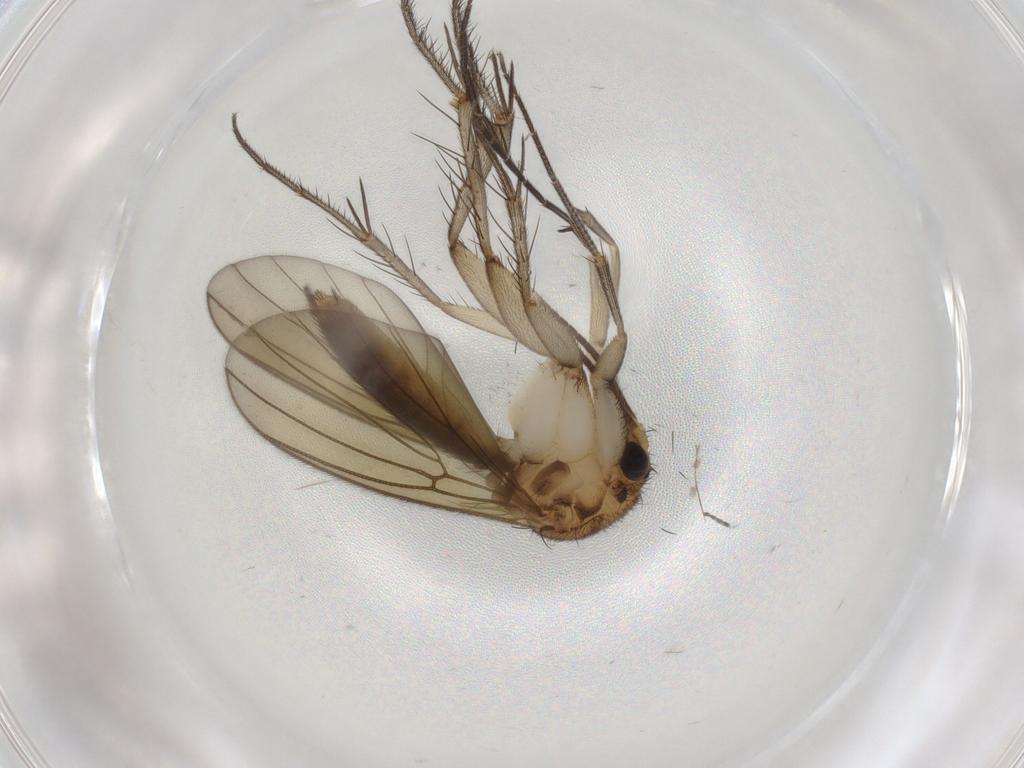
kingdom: Animalia
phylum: Arthropoda
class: Insecta
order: Diptera
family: Mycetophilidae
